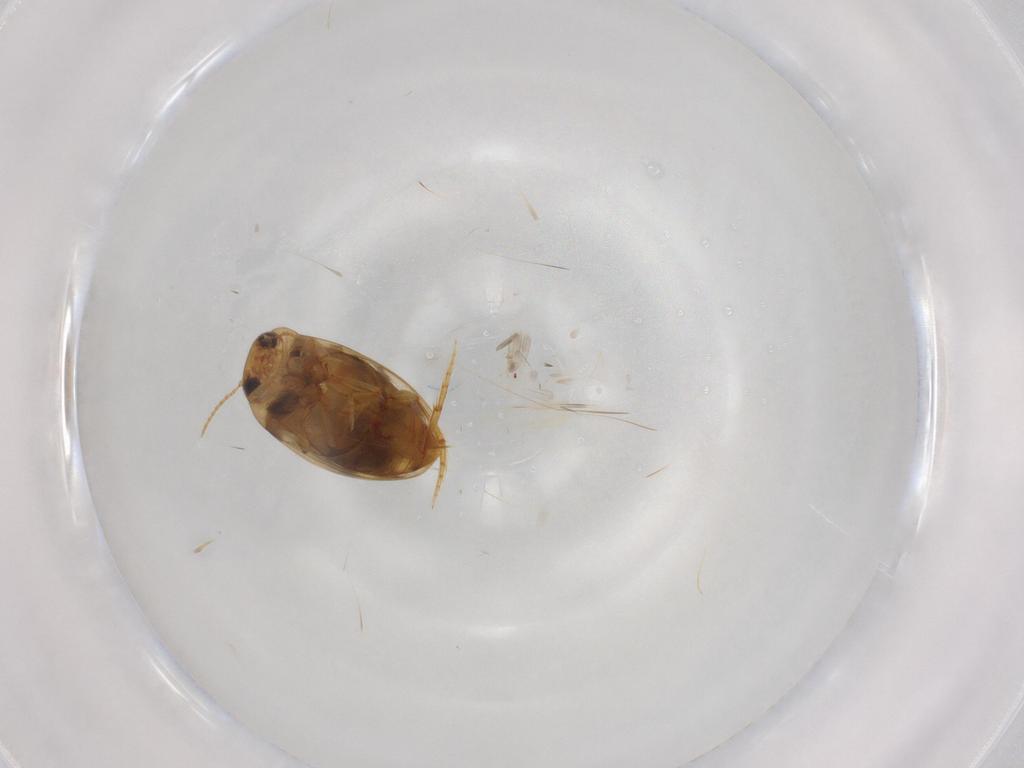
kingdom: Animalia
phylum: Arthropoda
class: Insecta
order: Coleoptera
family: Dytiscidae
